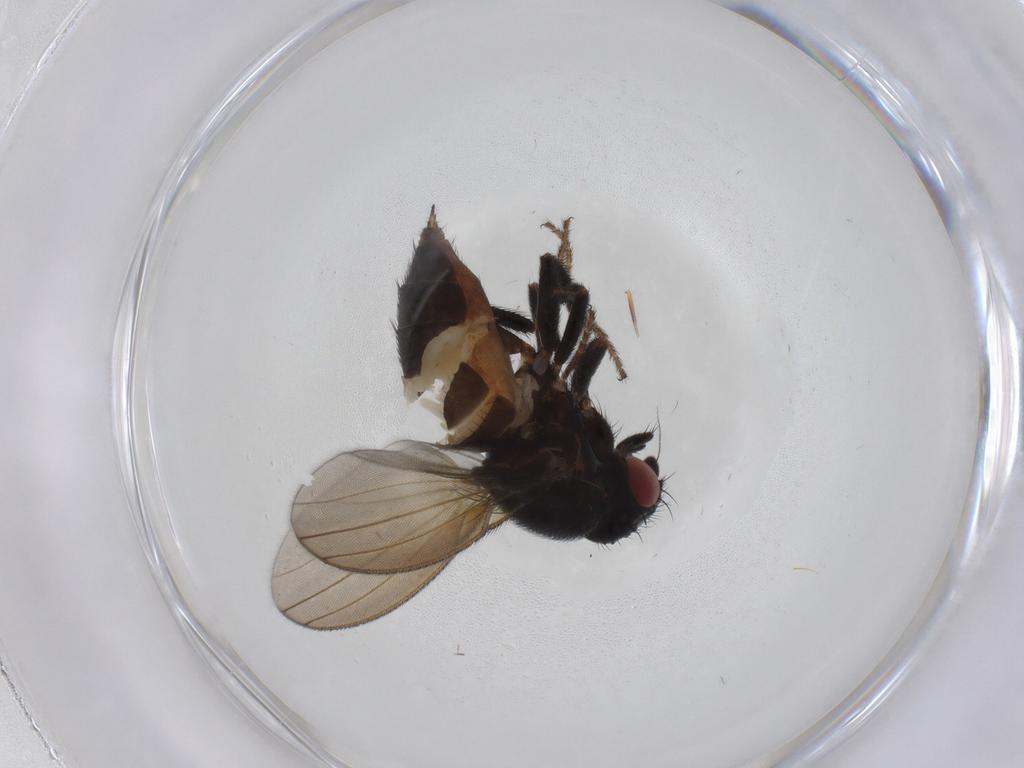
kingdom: Animalia
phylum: Arthropoda
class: Insecta
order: Diptera
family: Milichiidae
